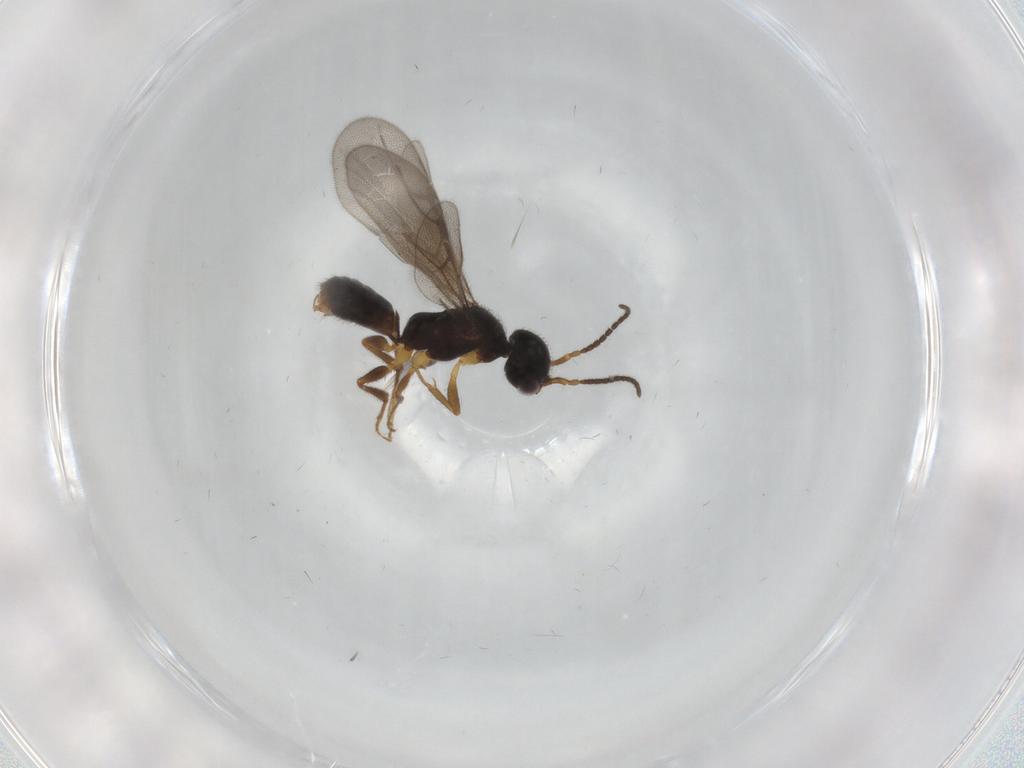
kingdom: Animalia
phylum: Arthropoda
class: Insecta
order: Hymenoptera
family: Bethylidae
